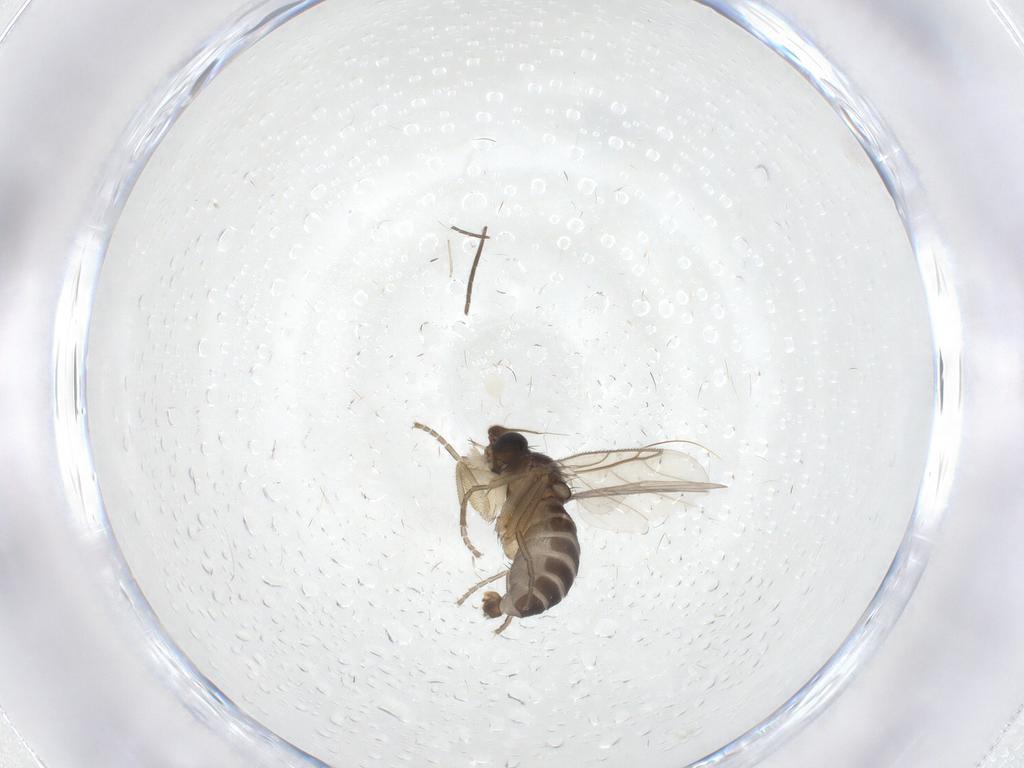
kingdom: Animalia
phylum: Arthropoda
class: Insecta
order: Diptera
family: Phoridae
